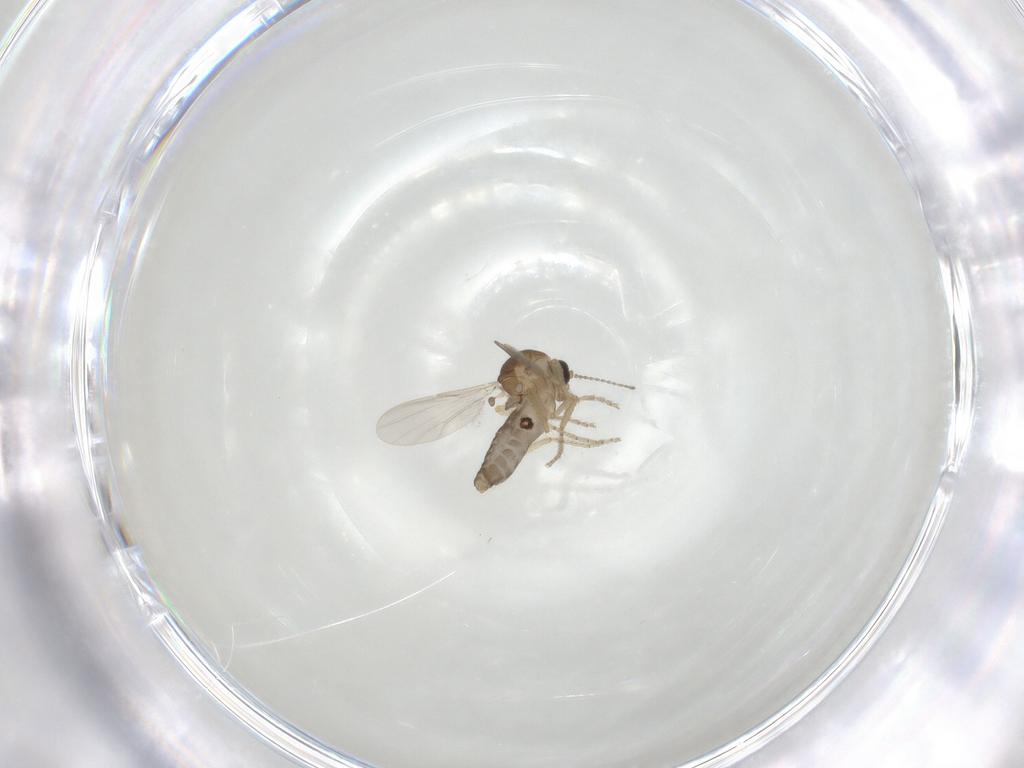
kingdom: Animalia
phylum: Arthropoda
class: Insecta
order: Diptera
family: Ceratopogonidae
